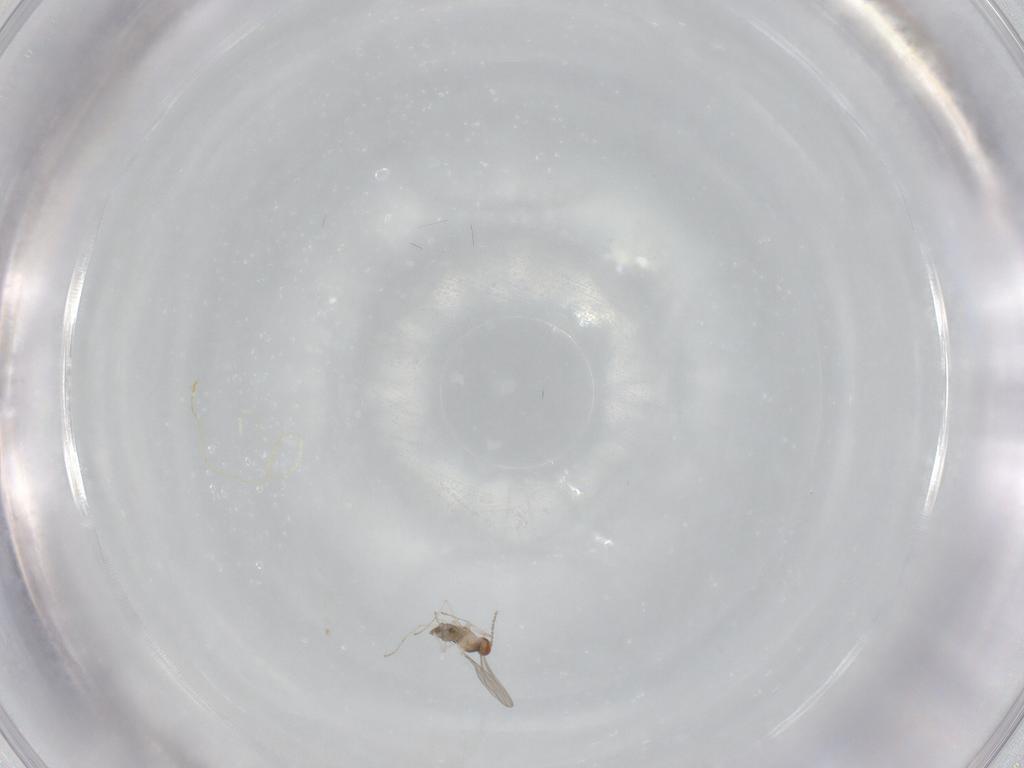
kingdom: Animalia
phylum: Arthropoda
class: Insecta
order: Diptera
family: Cecidomyiidae
